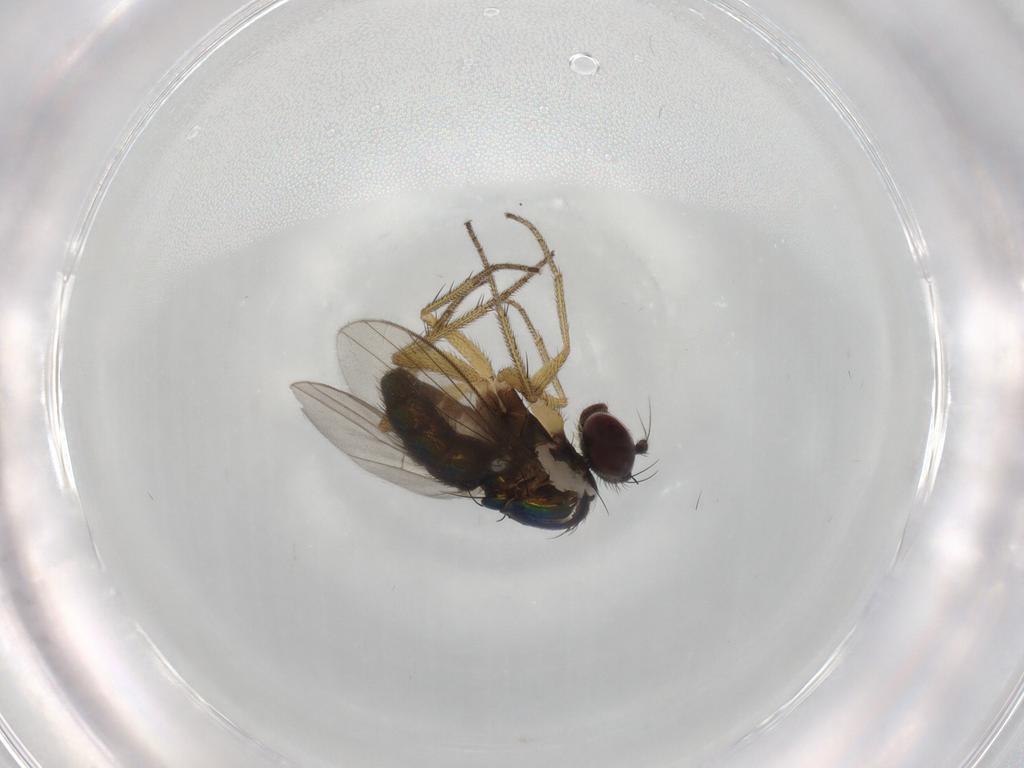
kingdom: Animalia
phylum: Arthropoda
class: Insecta
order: Diptera
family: Dolichopodidae
